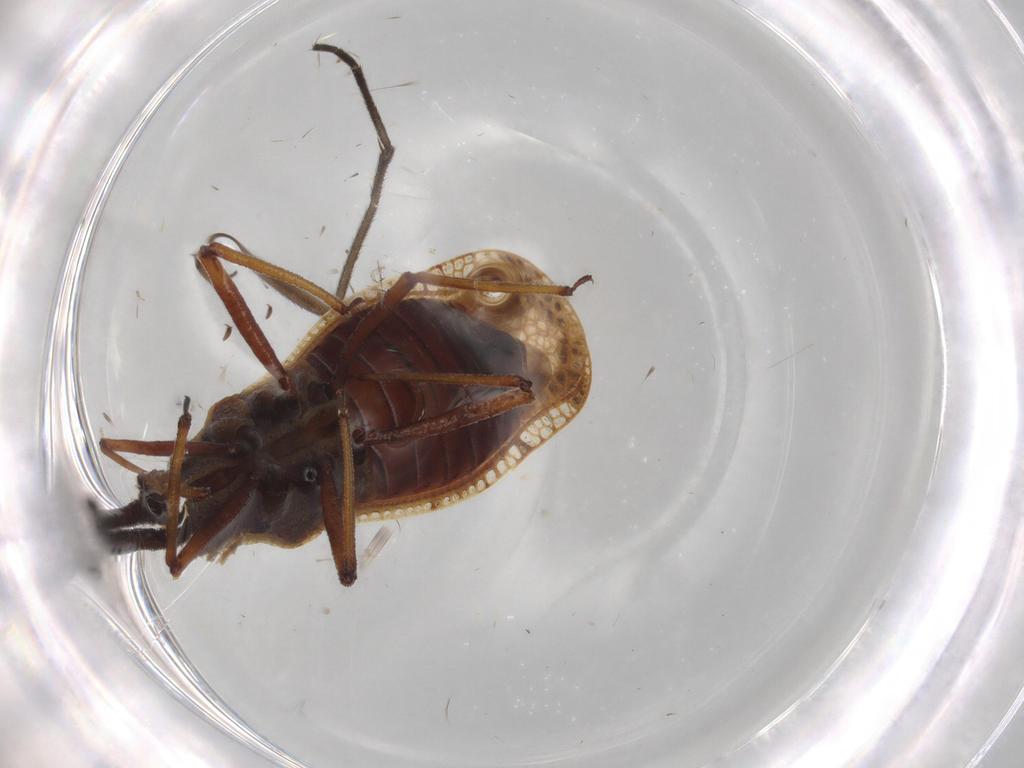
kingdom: Animalia
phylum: Arthropoda
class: Insecta
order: Hemiptera
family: Tingidae
